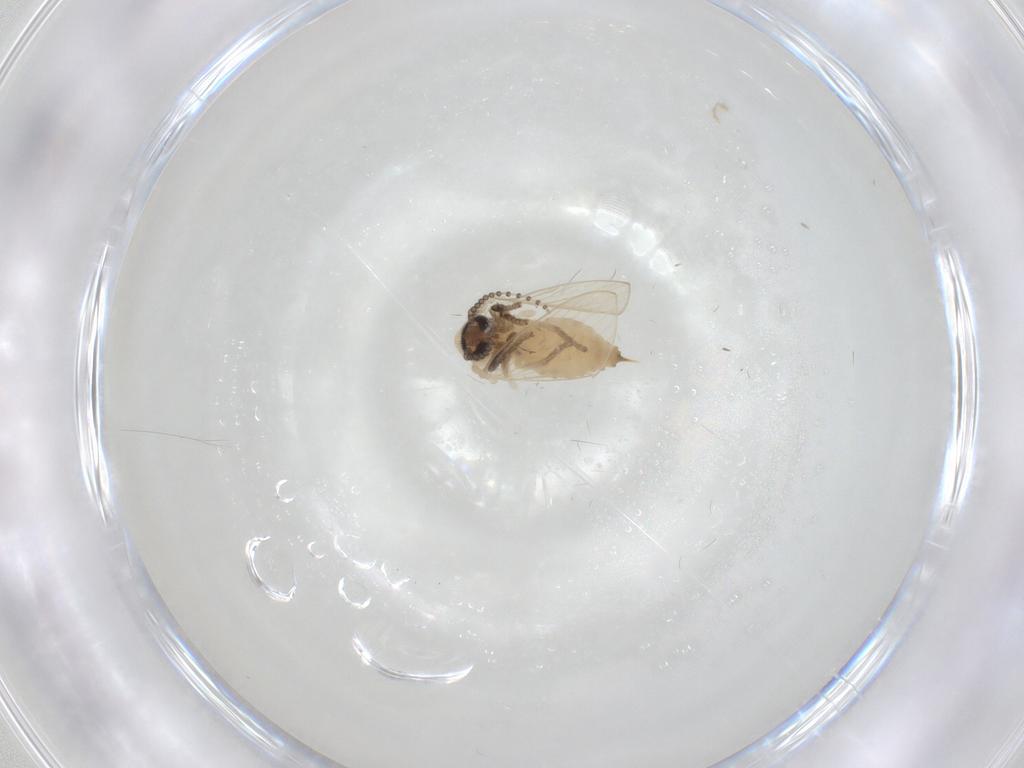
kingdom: Animalia
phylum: Arthropoda
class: Insecta
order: Diptera
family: Psychodidae
